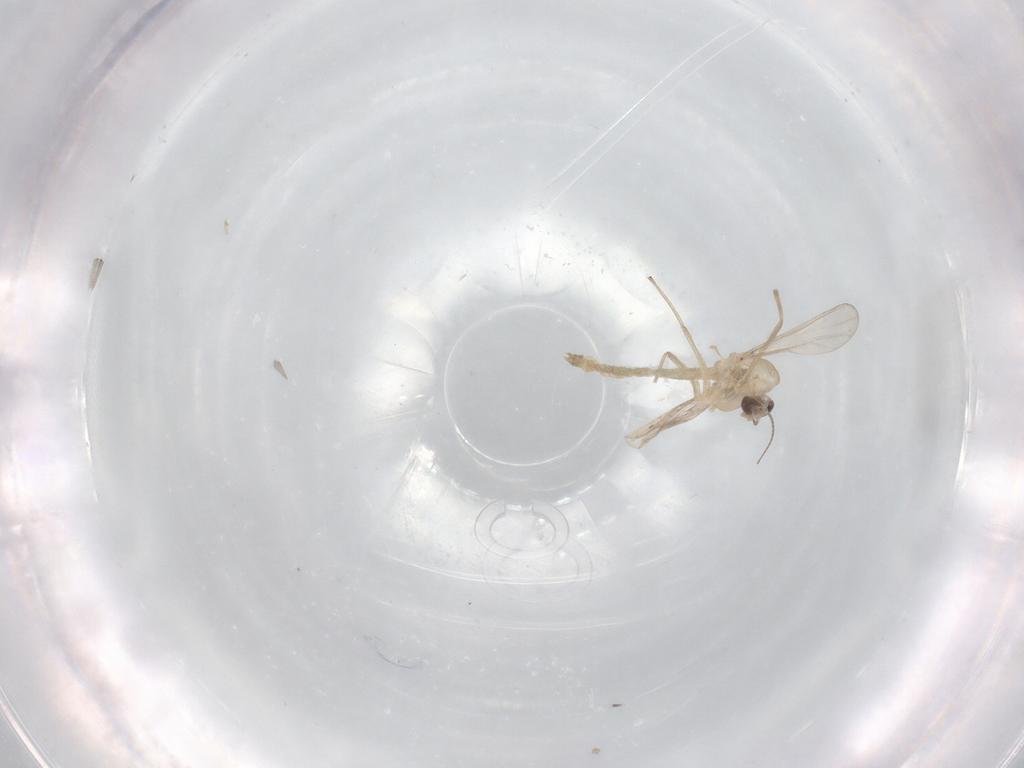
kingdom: Animalia
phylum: Arthropoda
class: Insecta
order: Diptera
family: Chironomidae
